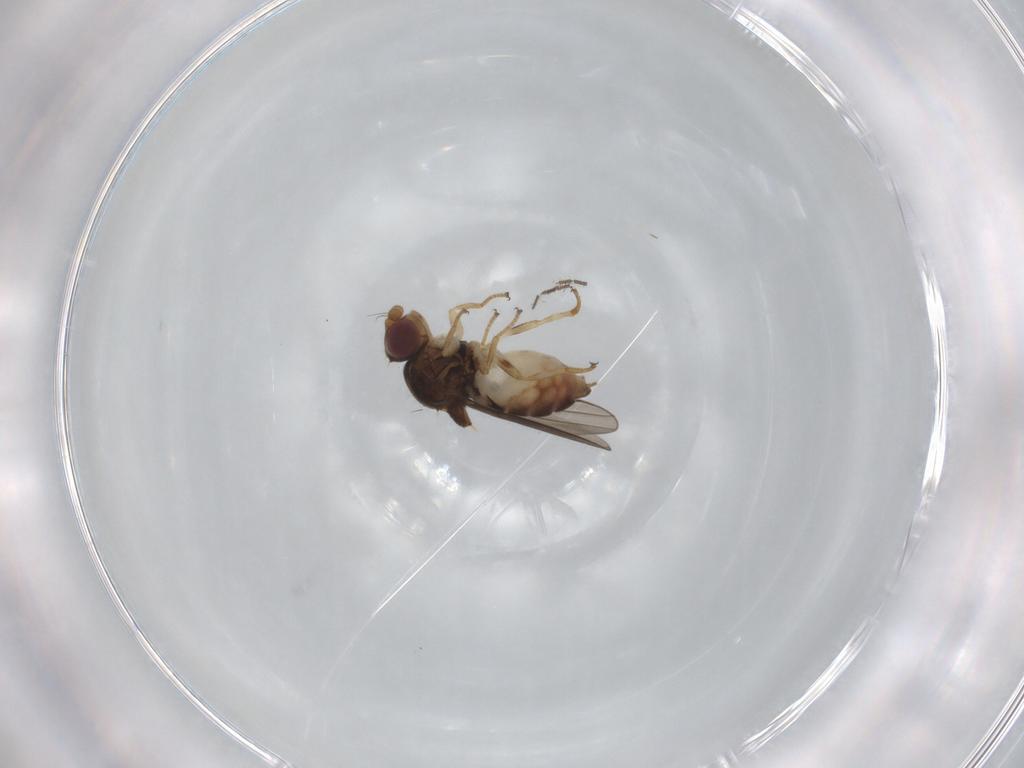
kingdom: Animalia
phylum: Arthropoda
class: Insecta
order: Diptera
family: Chloropidae
